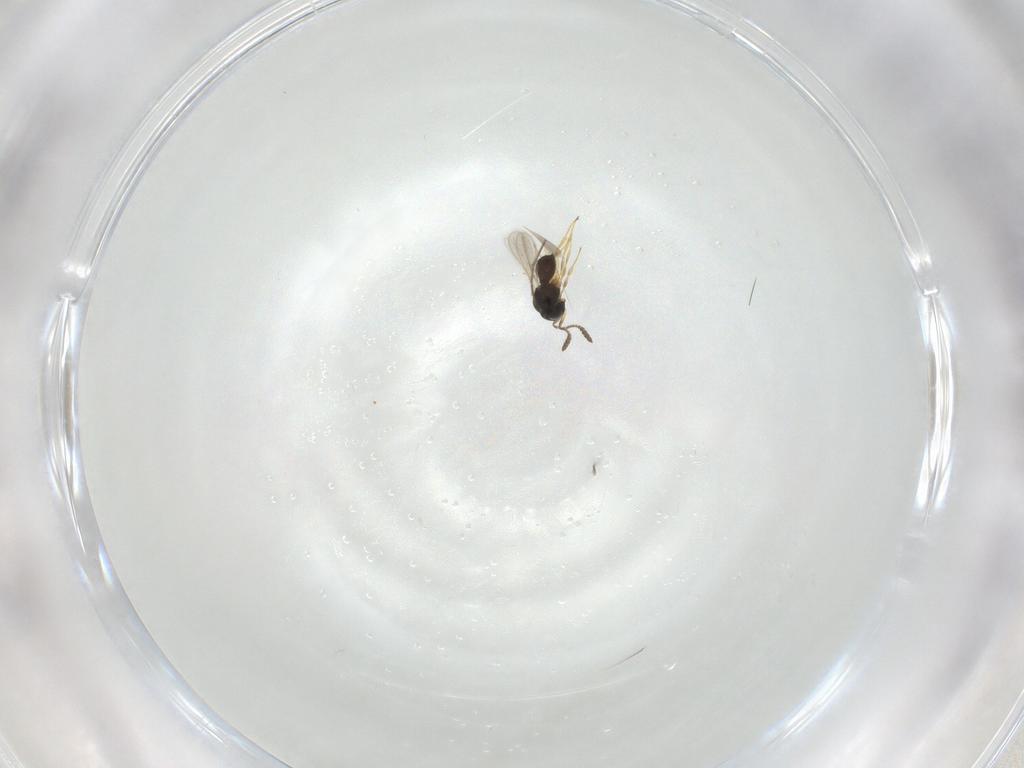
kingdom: Animalia
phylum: Arthropoda
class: Insecta
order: Hymenoptera
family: Scelionidae
